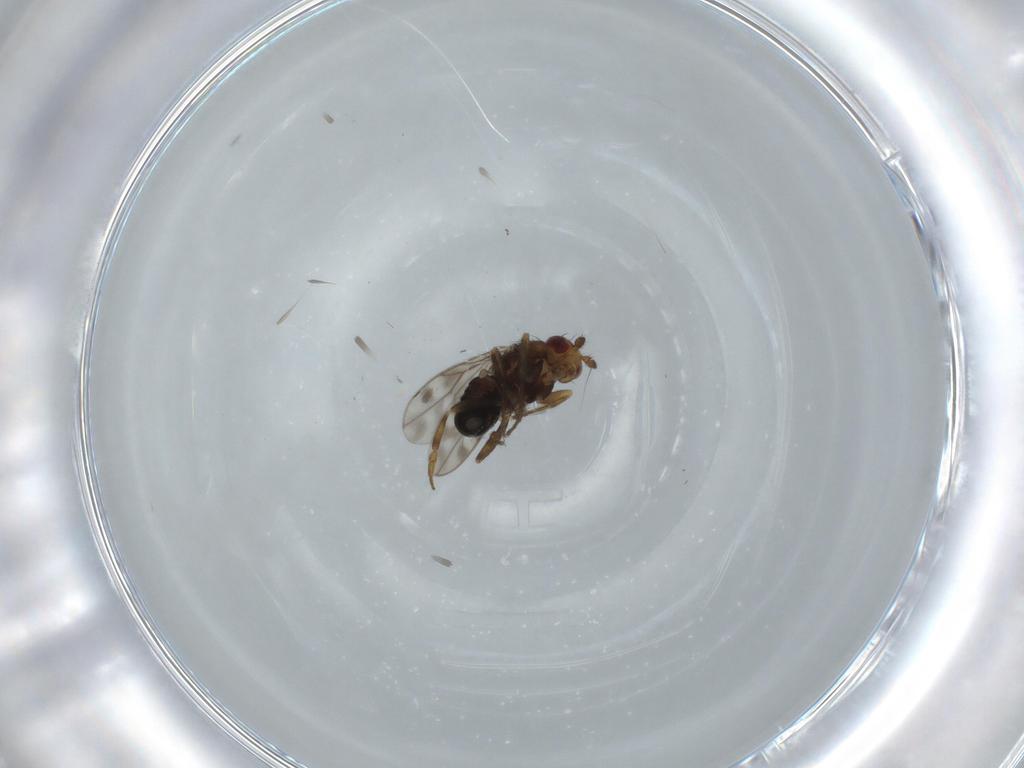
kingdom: Animalia
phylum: Arthropoda
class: Insecta
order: Diptera
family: Sphaeroceridae
